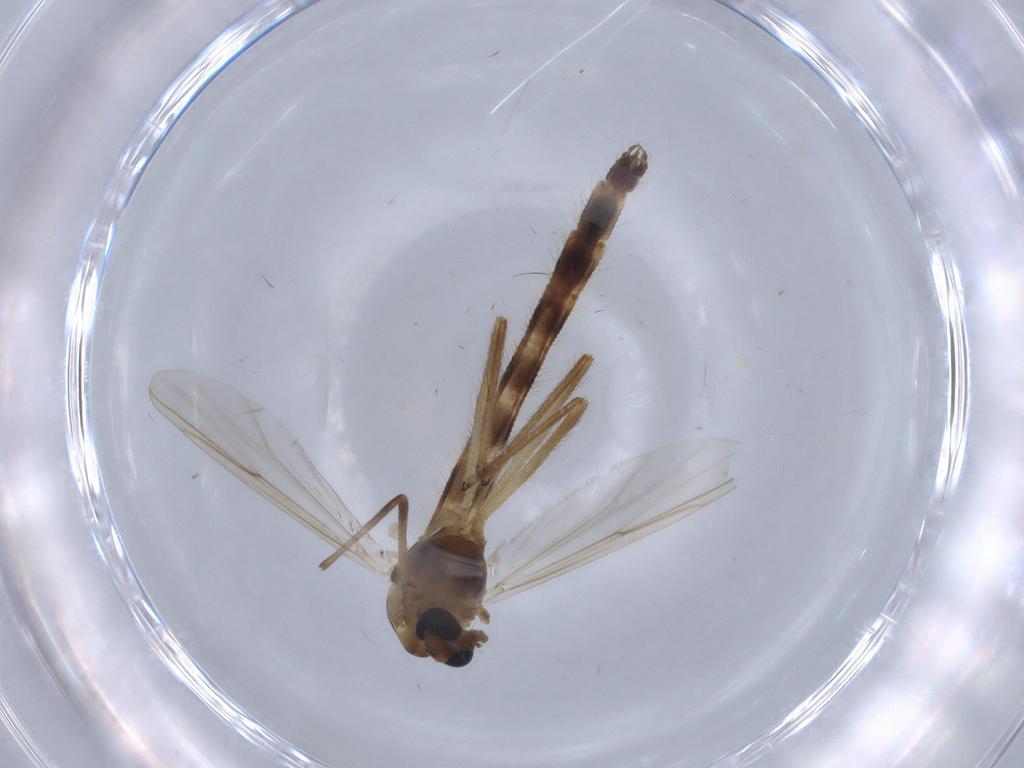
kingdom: Animalia
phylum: Arthropoda
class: Insecta
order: Diptera
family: Chironomidae
